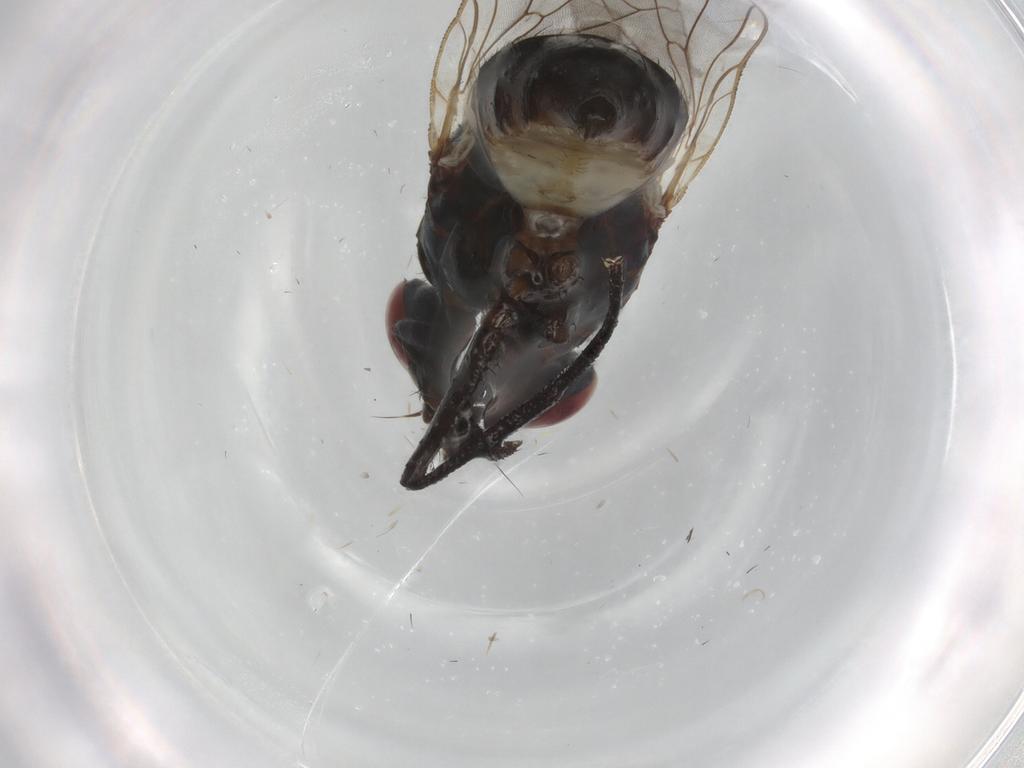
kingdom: Animalia
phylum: Arthropoda
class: Insecta
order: Diptera
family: Anthomyiidae
